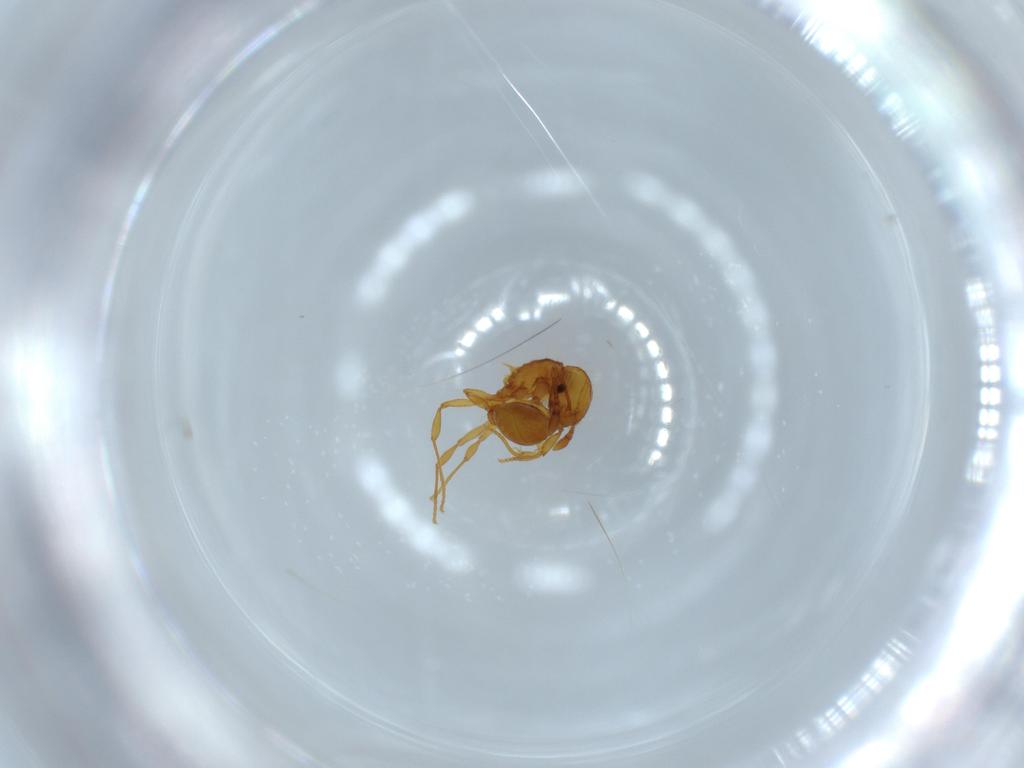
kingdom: Animalia
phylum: Arthropoda
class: Insecta
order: Hymenoptera
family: Formicidae
